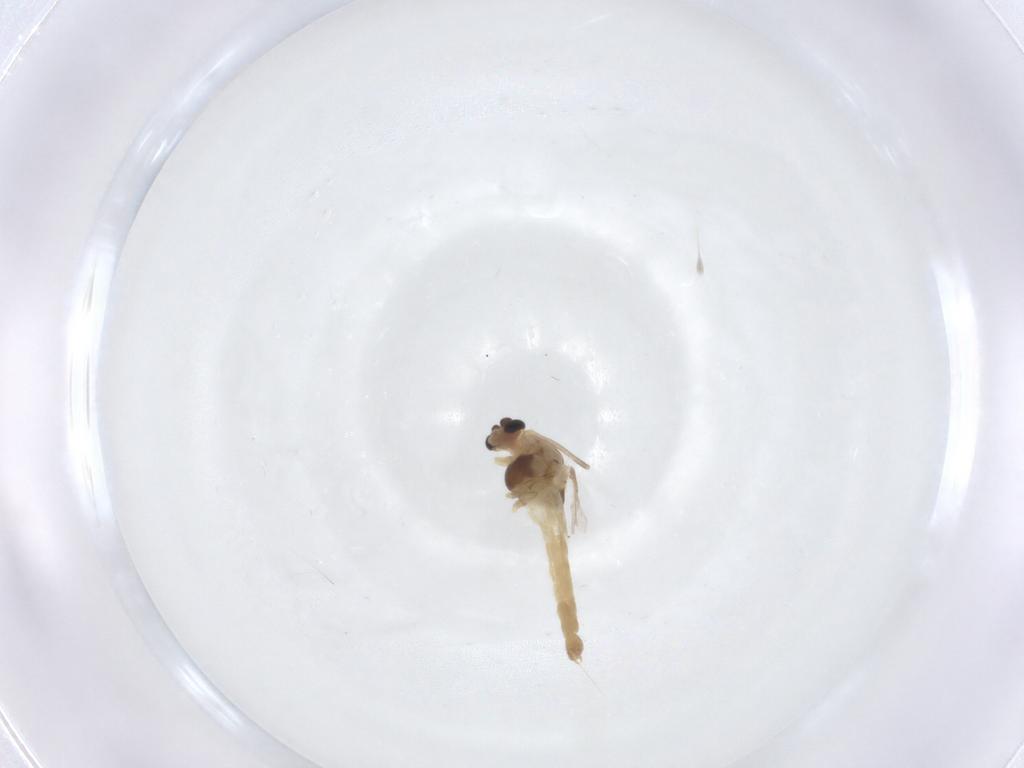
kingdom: Animalia
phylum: Arthropoda
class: Insecta
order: Diptera
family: Chironomidae
